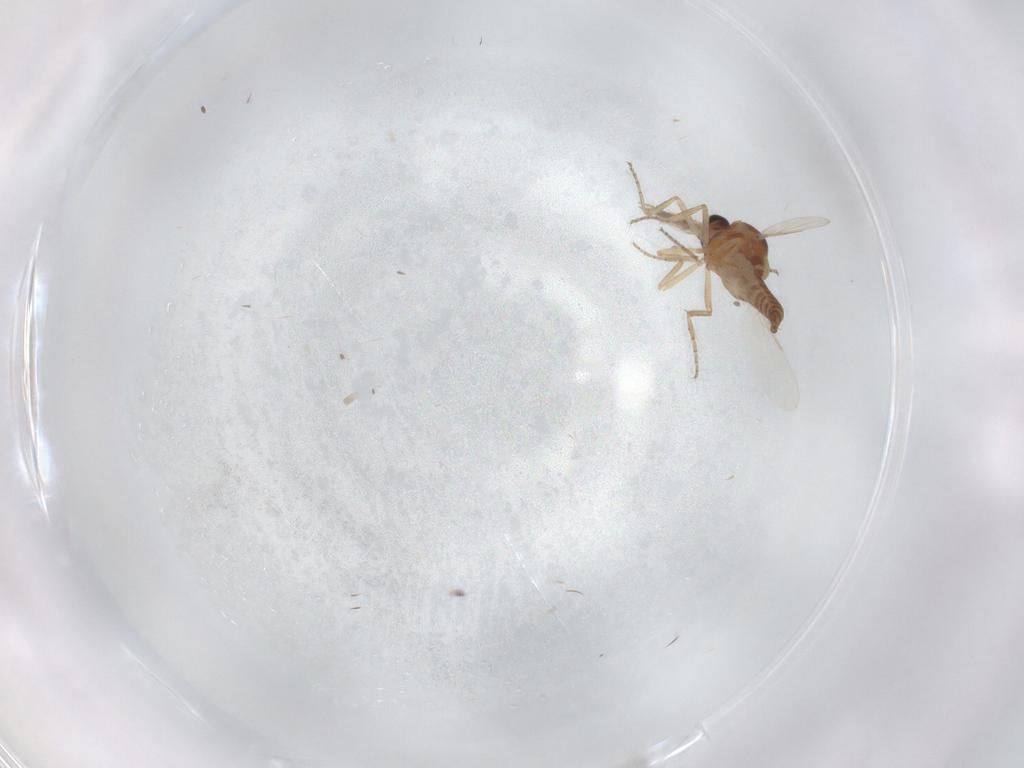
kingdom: Animalia
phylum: Arthropoda
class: Insecta
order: Diptera
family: Ceratopogonidae
